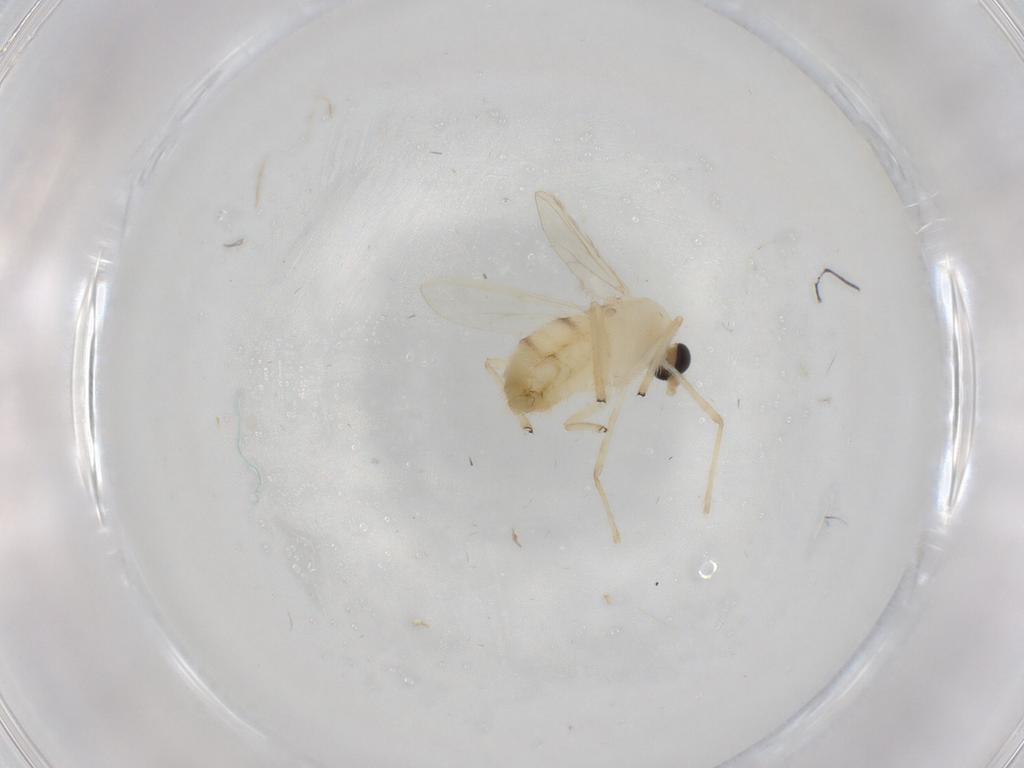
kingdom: Animalia
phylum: Arthropoda
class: Insecta
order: Diptera
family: Chironomidae
